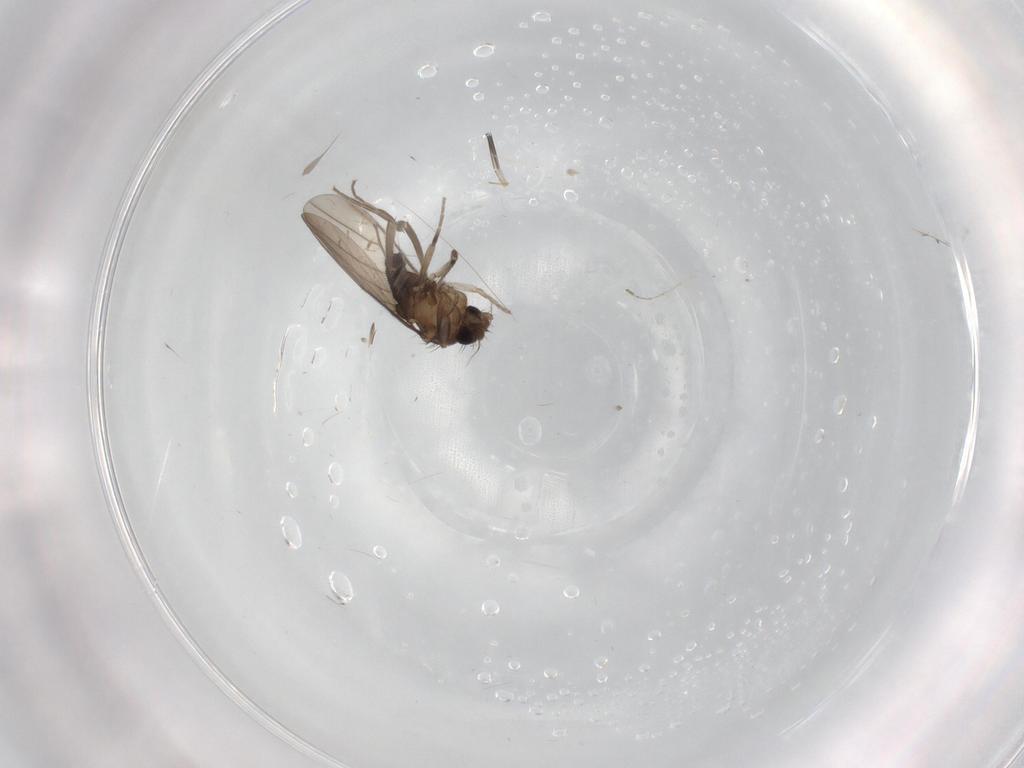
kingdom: Animalia
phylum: Arthropoda
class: Insecta
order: Diptera
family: Phoridae
